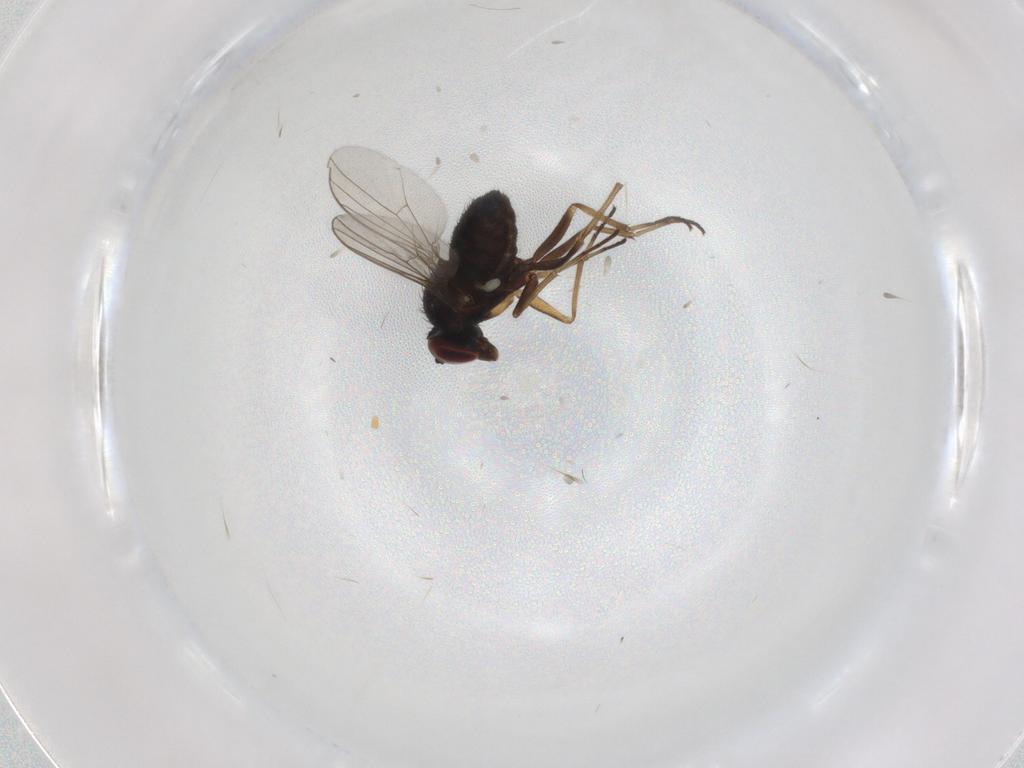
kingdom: Animalia
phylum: Arthropoda
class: Insecta
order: Diptera
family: Dolichopodidae
